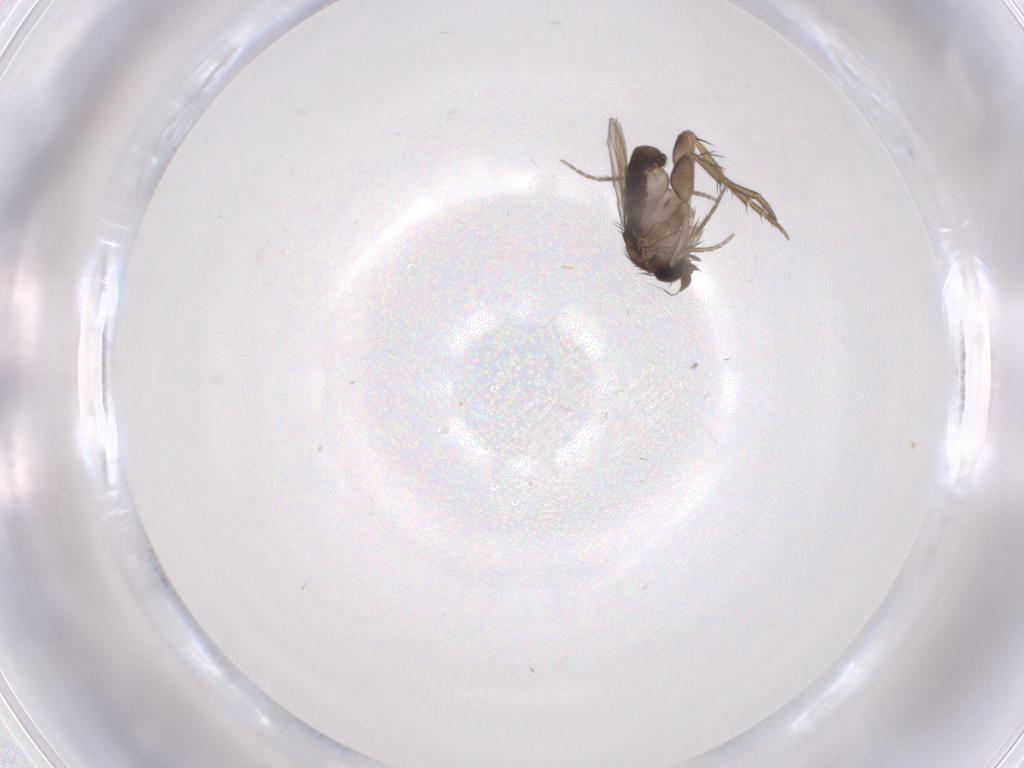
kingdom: Animalia
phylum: Arthropoda
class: Insecta
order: Diptera
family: Phoridae
